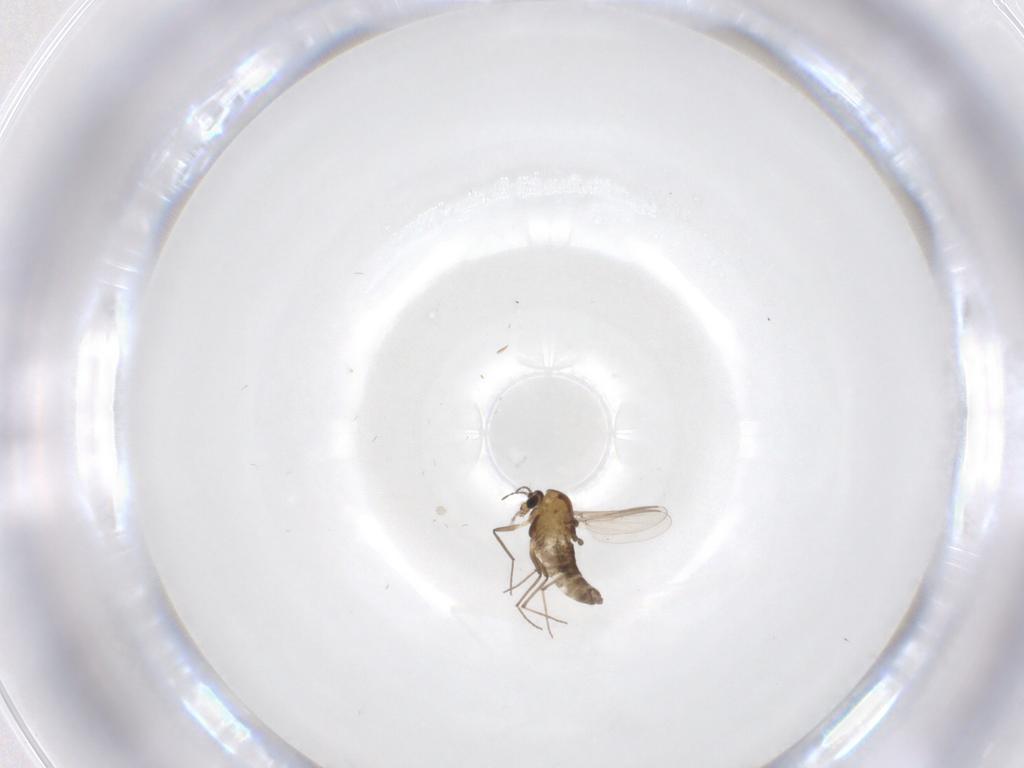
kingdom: Animalia
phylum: Arthropoda
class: Insecta
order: Diptera
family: Chironomidae
